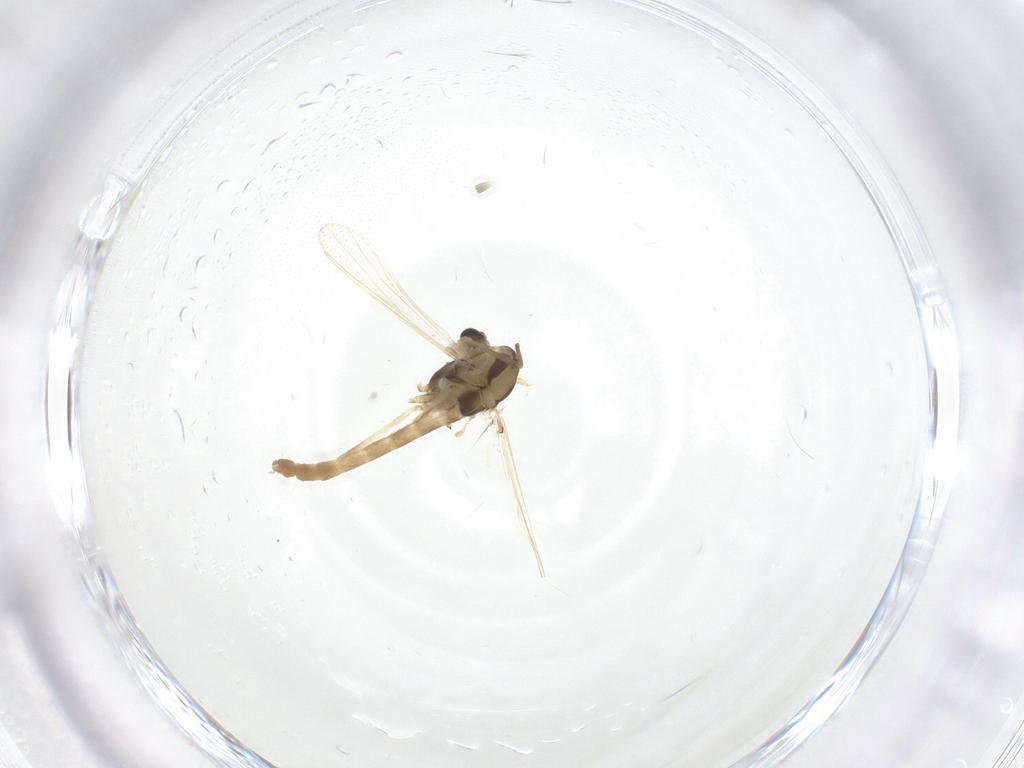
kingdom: Animalia
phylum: Arthropoda
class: Insecta
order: Diptera
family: Chironomidae
